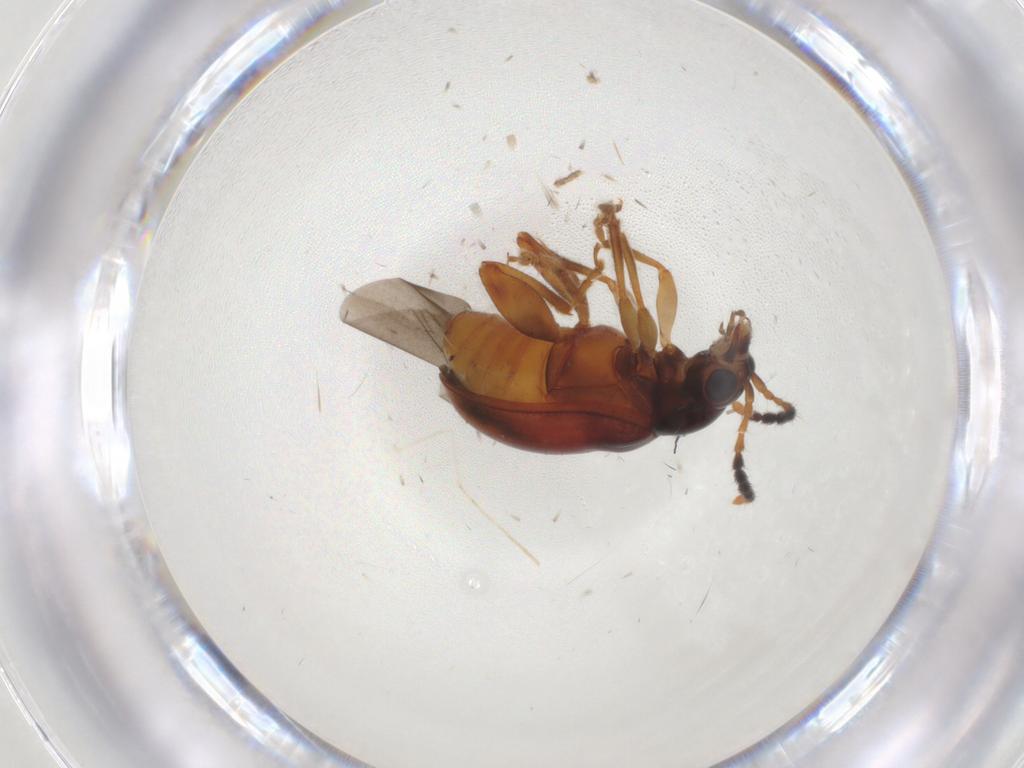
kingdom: Animalia
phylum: Arthropoda
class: Insecta
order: Coleoptera
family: Chrysomelidae
